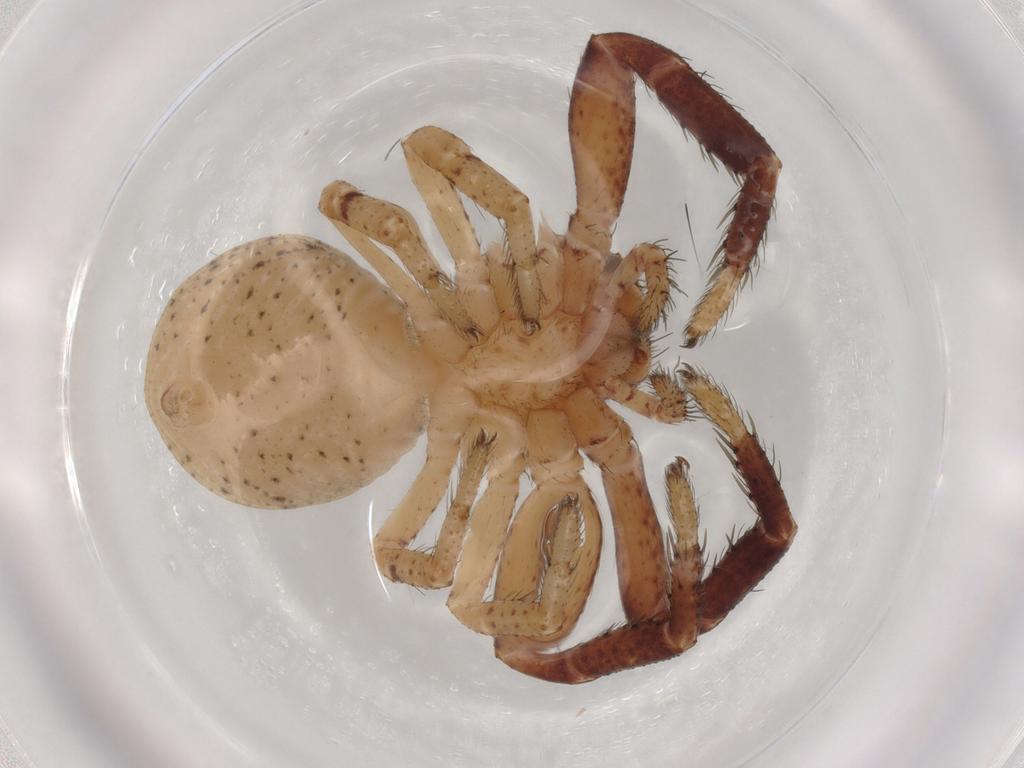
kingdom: Animalia
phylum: Arthropoda
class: Arachnida
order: Araneae
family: Thomisidae
